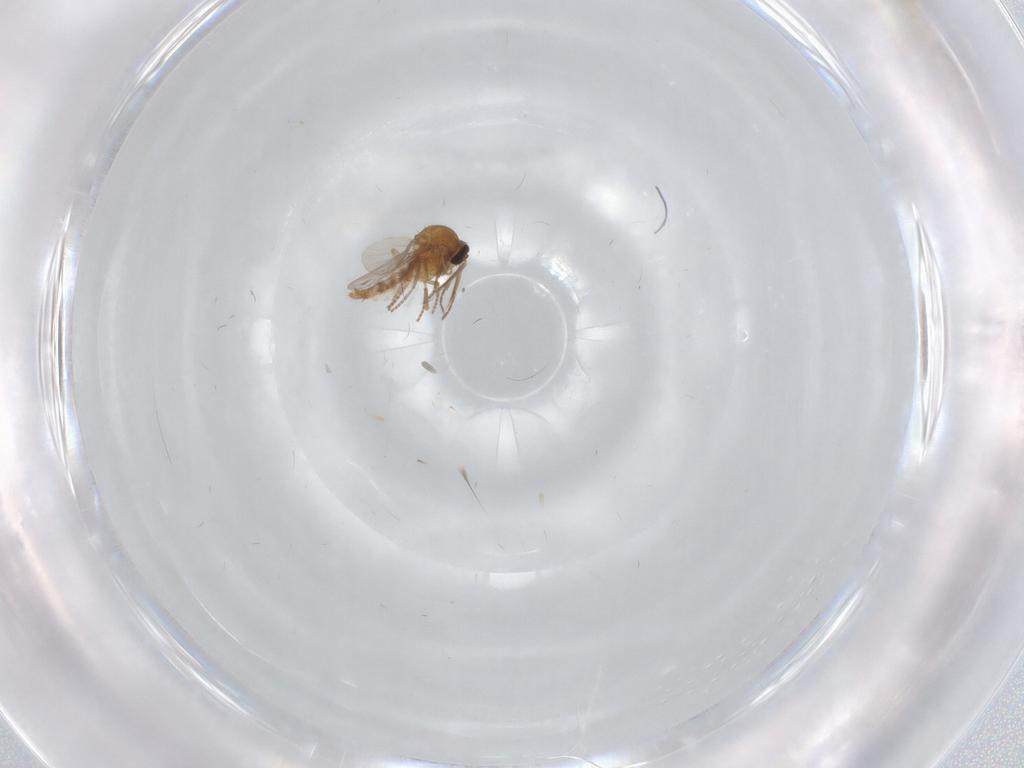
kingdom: Animalia
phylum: Arthropoda
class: Insecta
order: Diptera
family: Ceratopogonidae
